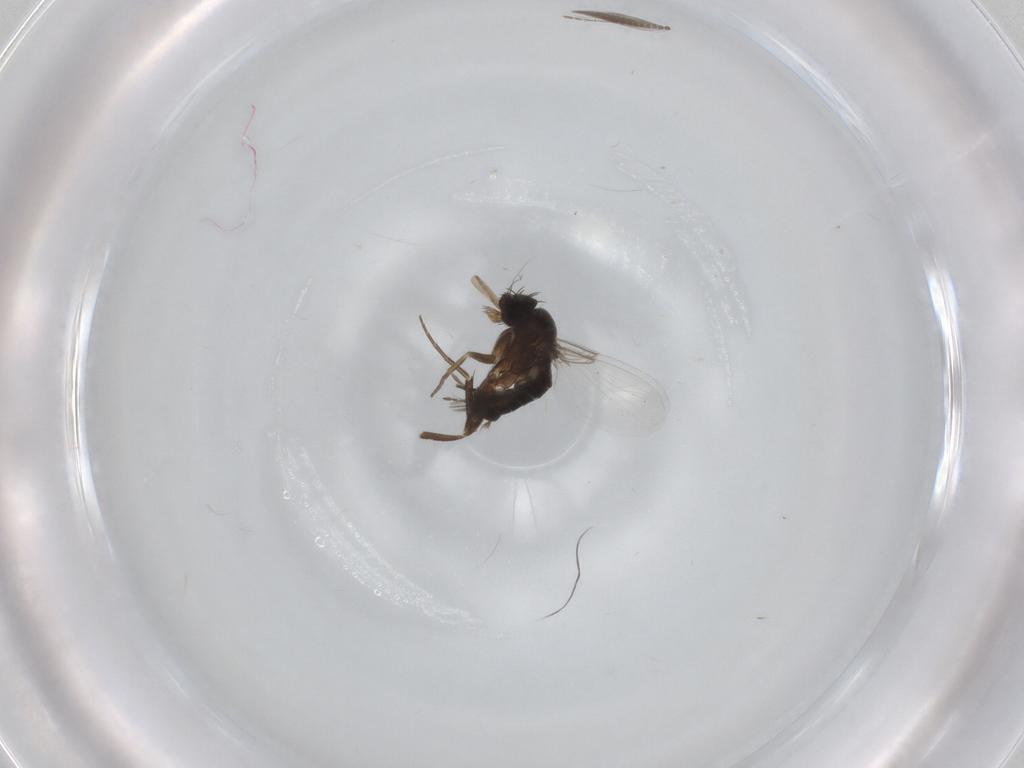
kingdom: Animalia
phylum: Arthropoda
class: Insecta
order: Diptera
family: Phoridae
